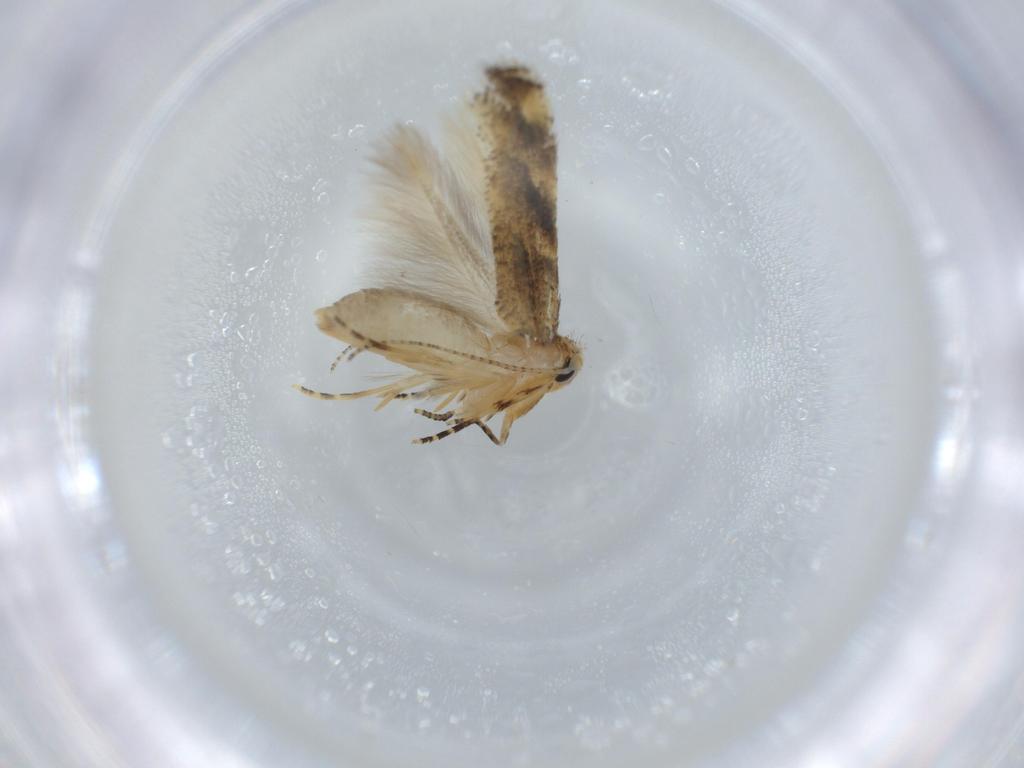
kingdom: Animalia
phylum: Arthropoda
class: Insecta
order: Lepidoptera
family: Bucculatricidae
